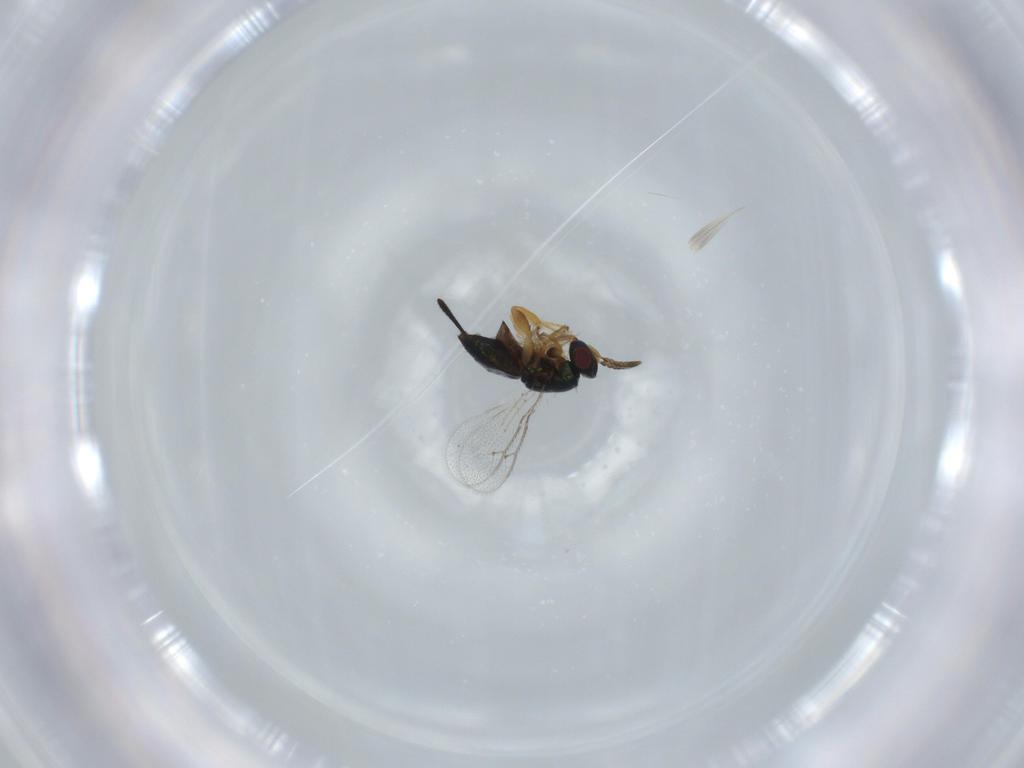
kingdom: Animalia
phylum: Arthropoda
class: Insecta
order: Hymenoptera
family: Torymidae
